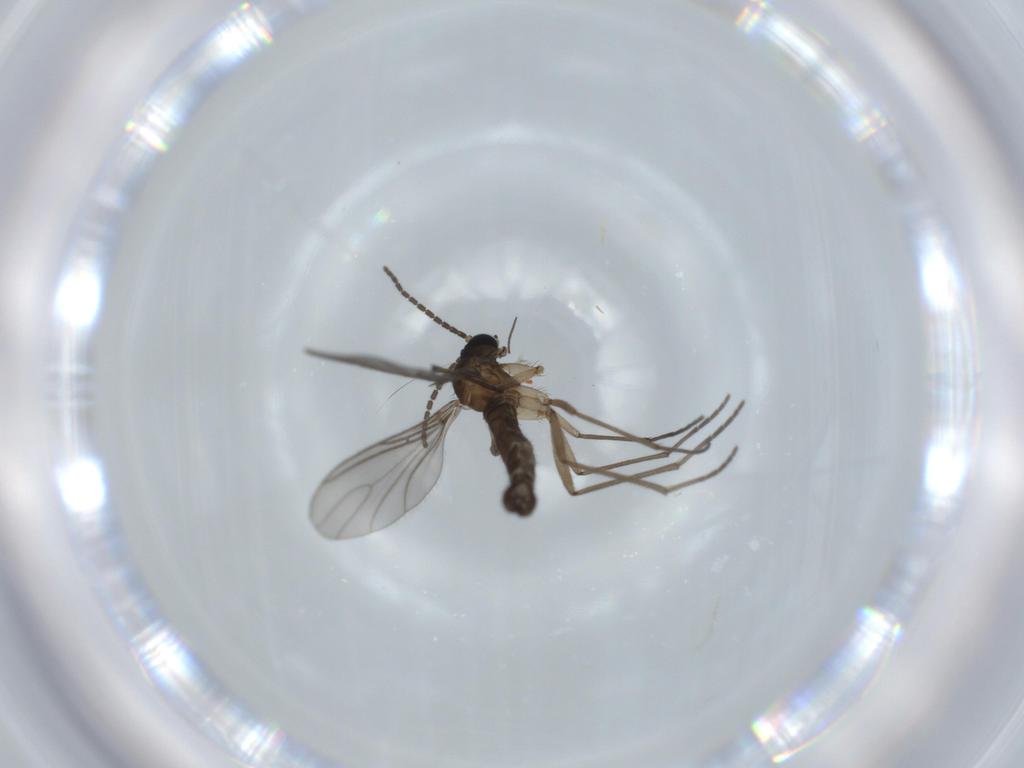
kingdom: Animalia
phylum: Arthropoda
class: Insecta
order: Diptera
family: Sciaridae
